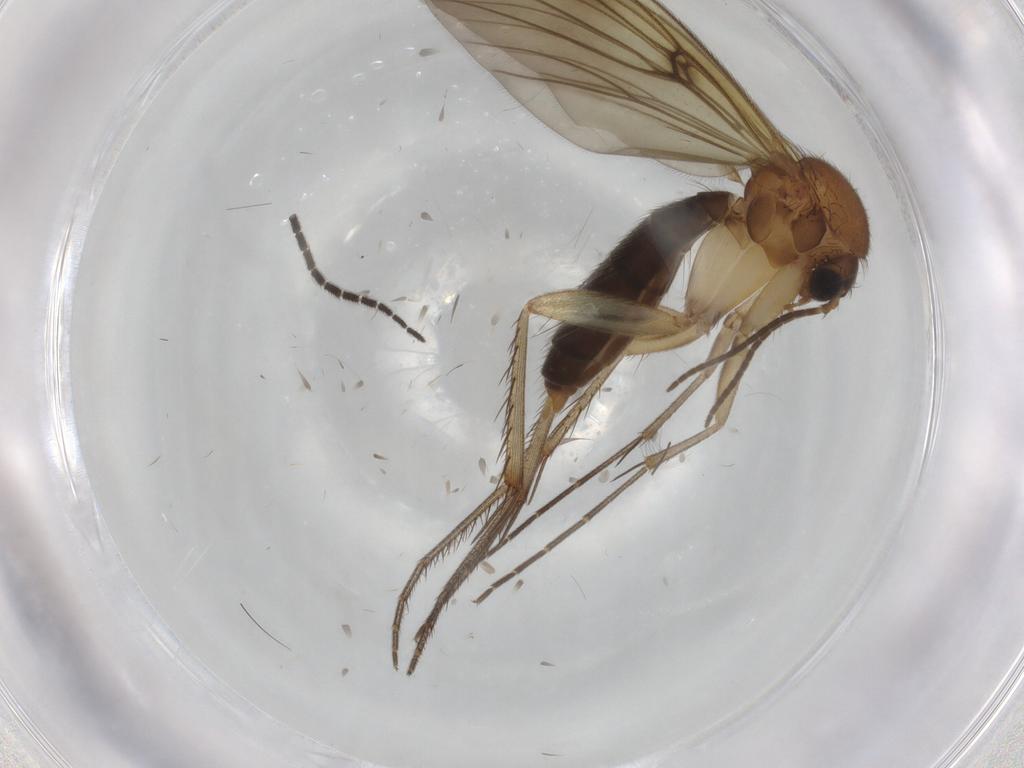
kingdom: Animalia
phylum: Arthropoda
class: Insecta
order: Diptera
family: Mycetophilidae
